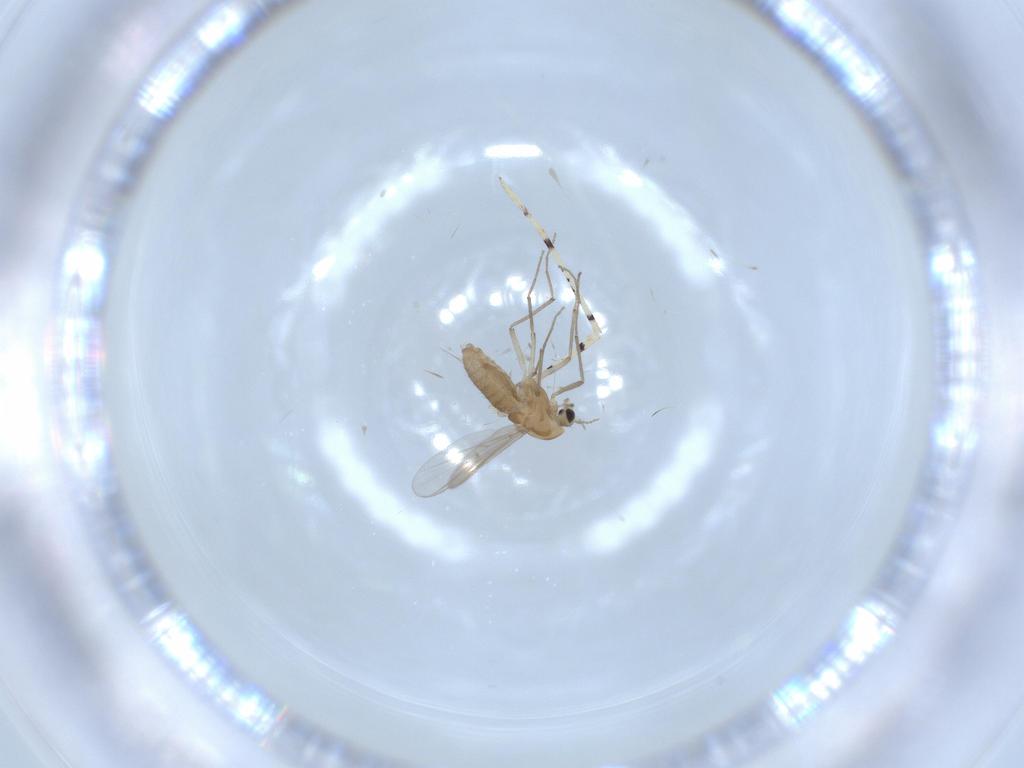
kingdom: Animalia
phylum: Arthropoda
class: Insecta
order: Diptera
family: Chironomidae
